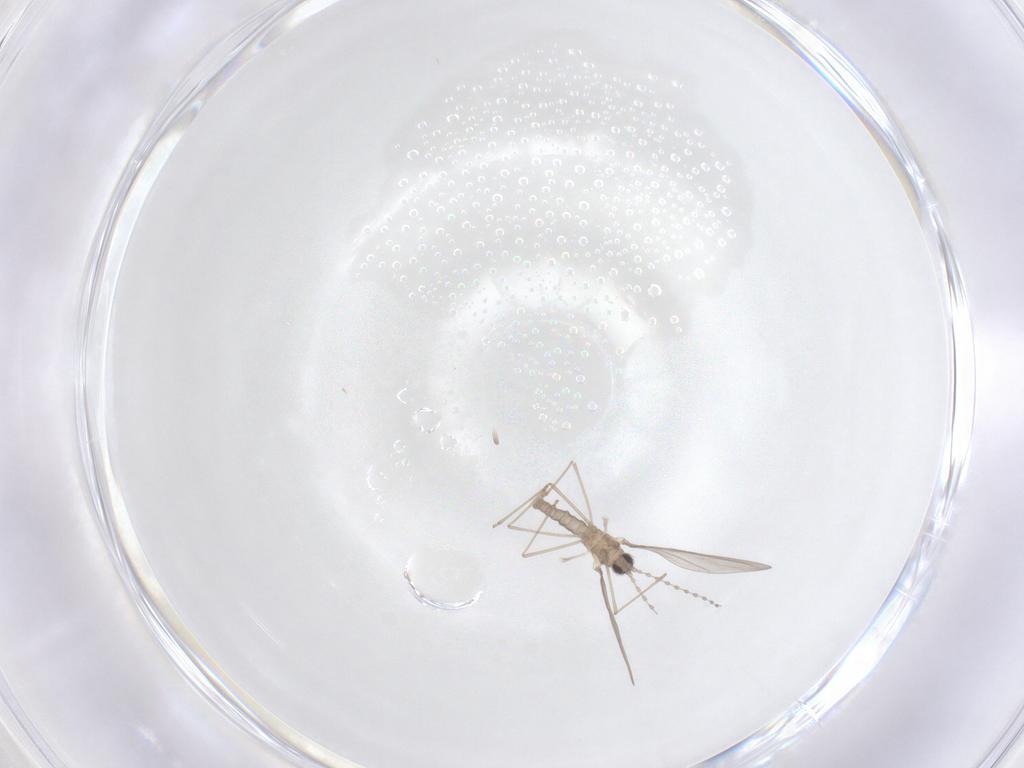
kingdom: Animalia
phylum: Arthropoda
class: Insecta
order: Diptera
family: Cecidomyiidae
